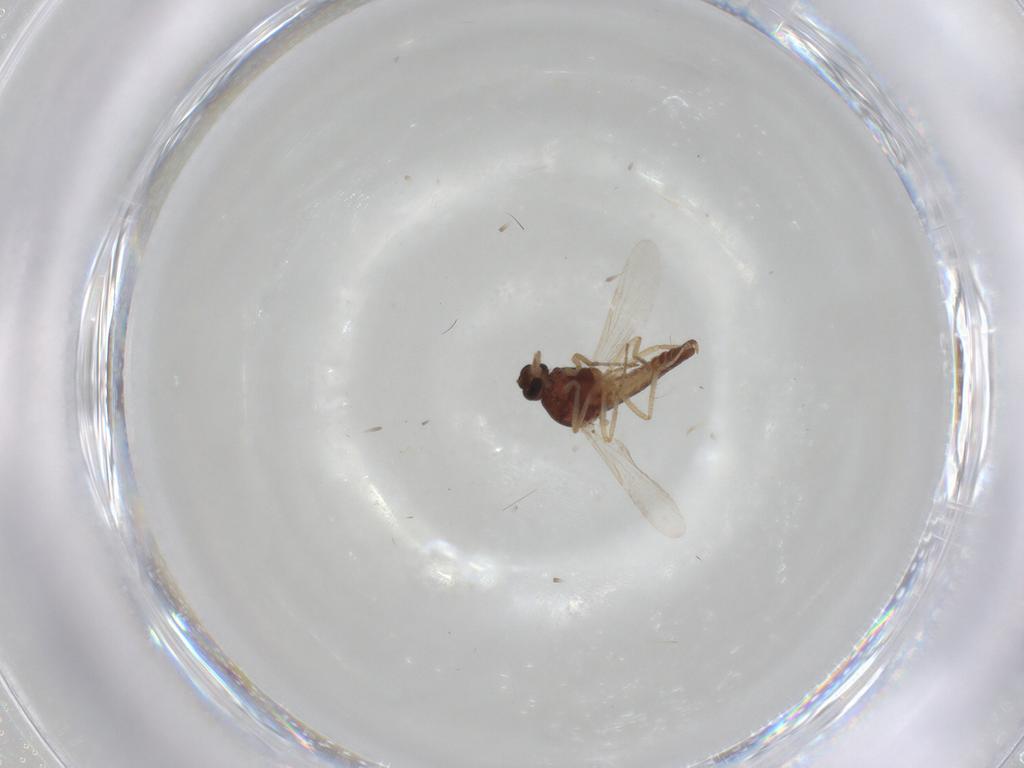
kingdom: Animalia
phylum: Arthropoda
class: Insecta
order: Diptera
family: Ceratopogonidae
